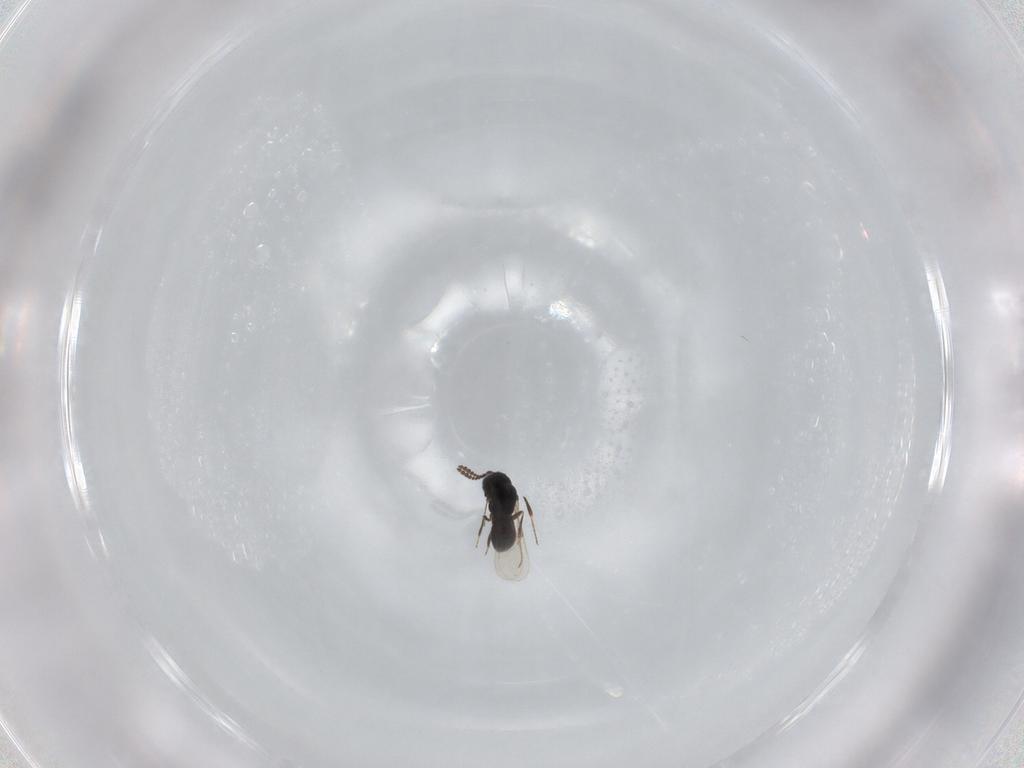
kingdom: Animalia
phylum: Arthropoda
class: Insecta
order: Hymenoptera
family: Scelionidae
